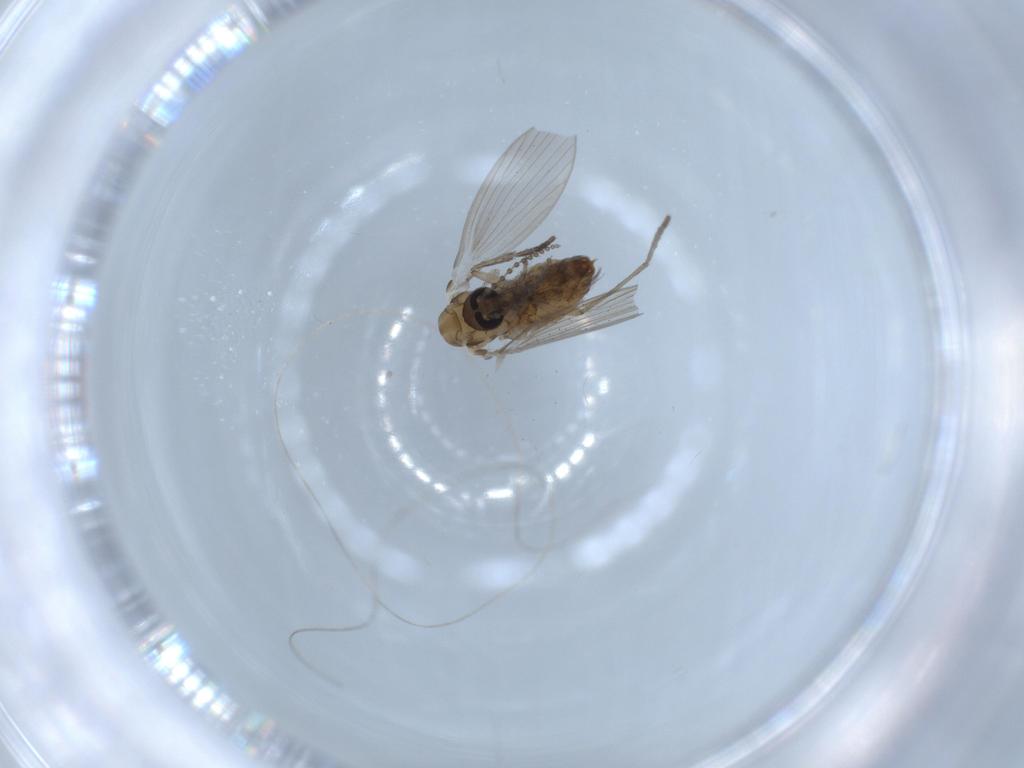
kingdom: Animalia
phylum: Arthropoda
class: Insecta
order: Diptera
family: Psychodidae
